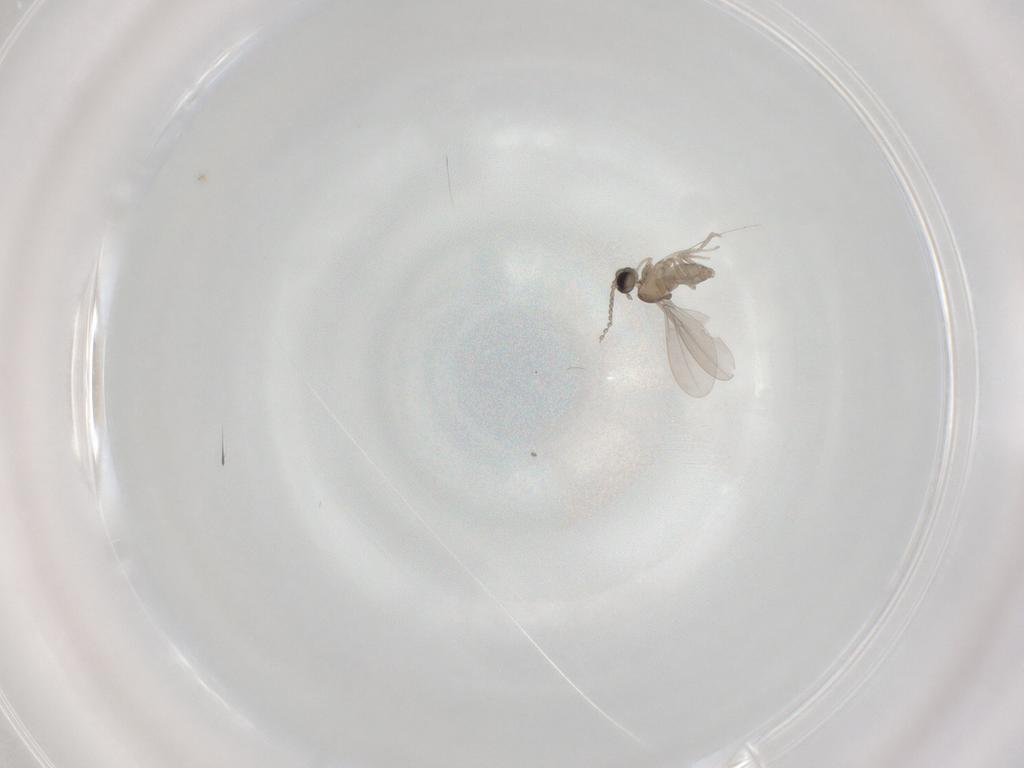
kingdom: Animalia
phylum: Arthropoda
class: Insecta
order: Diptera
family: Cecidomyiidae
